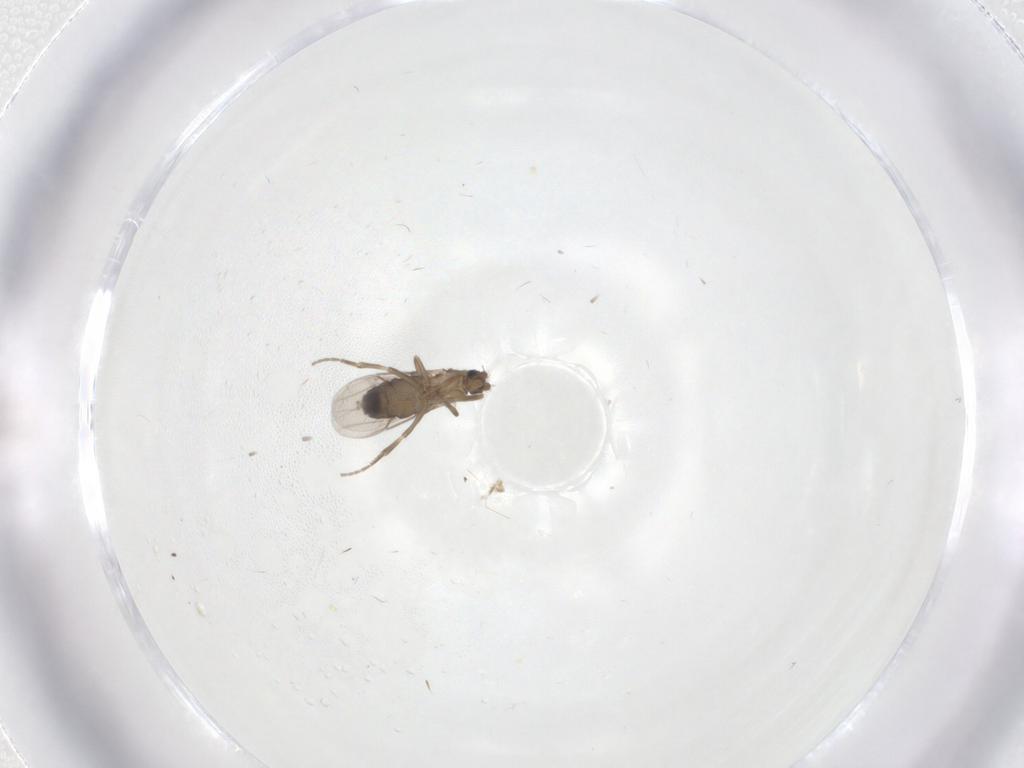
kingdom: Animalia
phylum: Arthropoda
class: Insecta
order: Diptera
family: Phoridae
